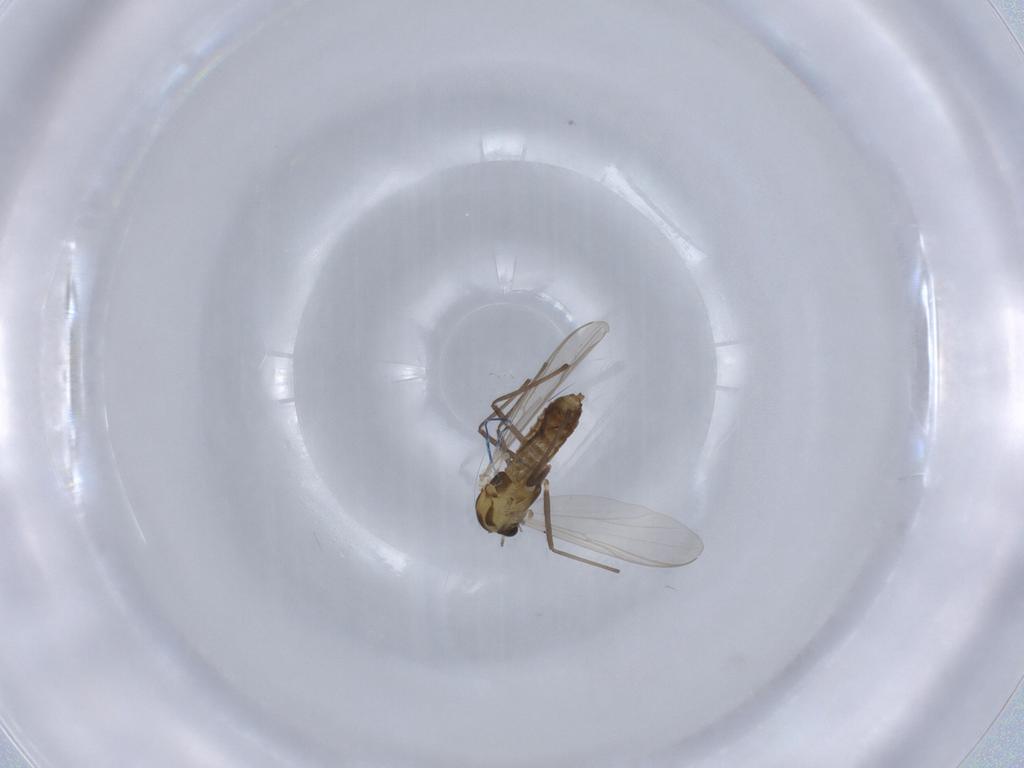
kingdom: Animalia
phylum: Arthropoda
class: Insecta
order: Diptera
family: Chironomidae
